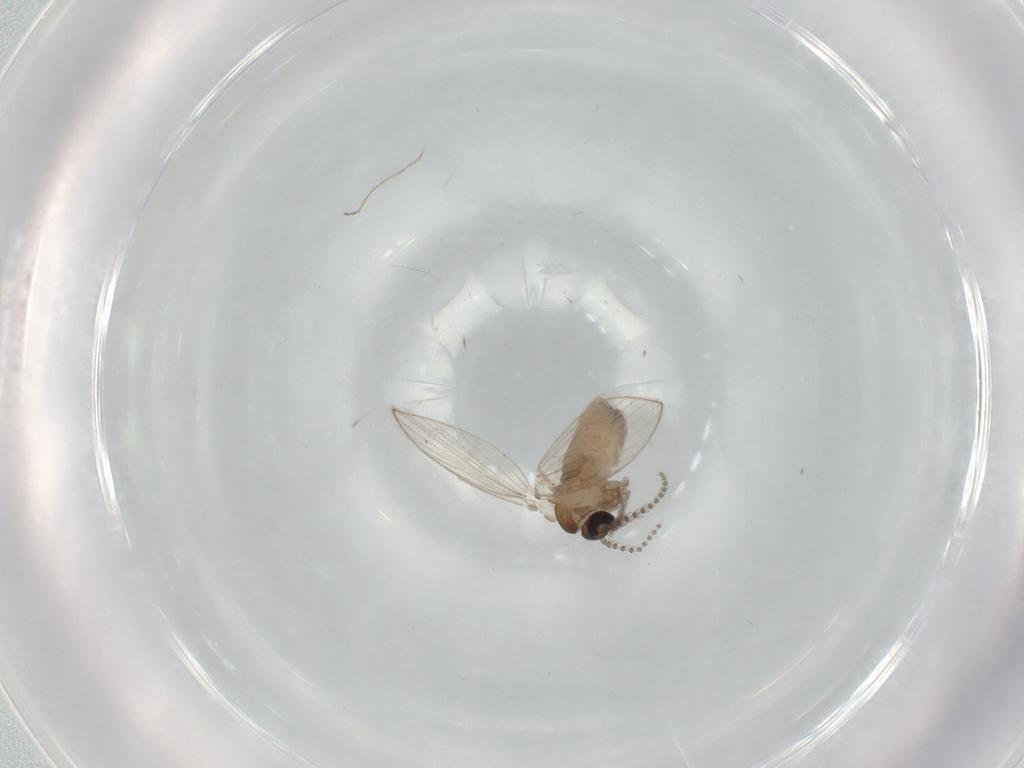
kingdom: Animalia
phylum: Arthropoda
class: Insecta
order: Diptera
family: Psychodidae
